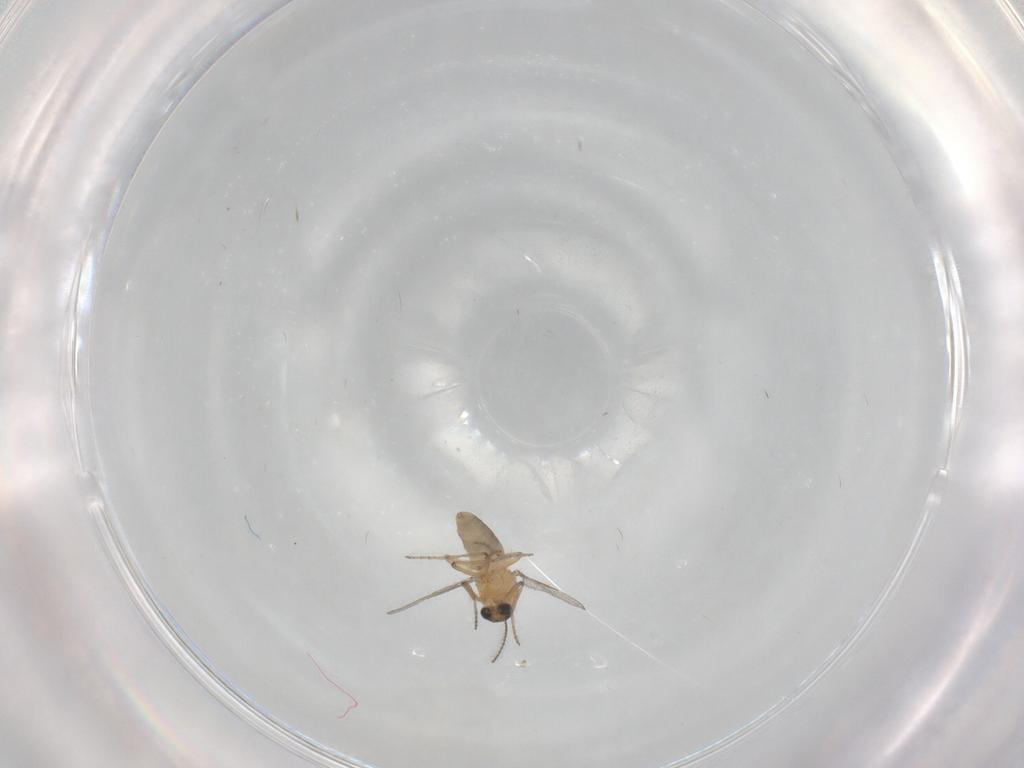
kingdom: Animalia
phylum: Arthropoda
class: Insecta
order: Diptera
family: Ceratopogonidae
